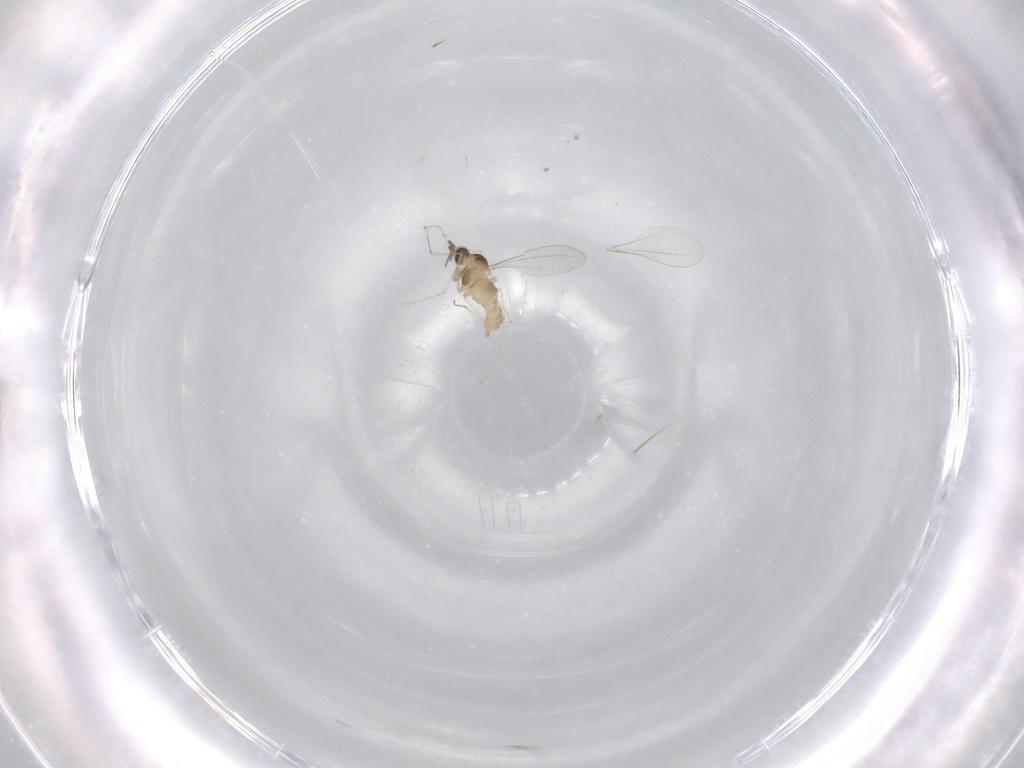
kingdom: Animalia
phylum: Arthropoda
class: Insecta
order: Diptera
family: Cecidomyiidae
